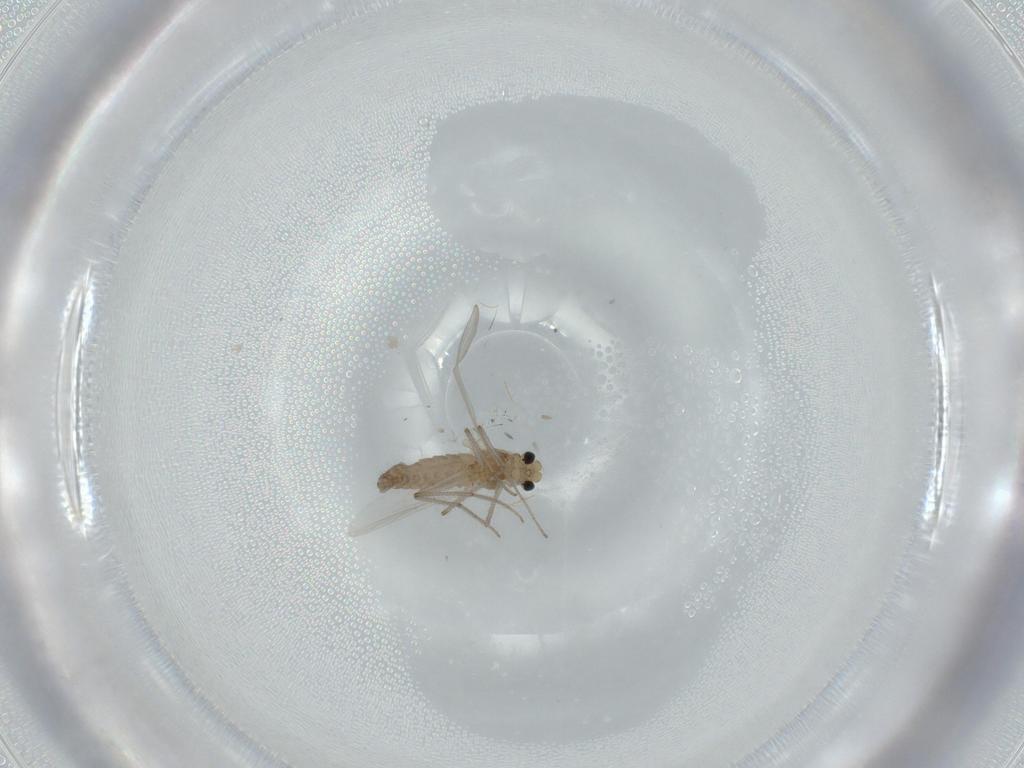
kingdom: Animalia
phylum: Arthropoda
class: Insecta
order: Diptera
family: Chironomidae
